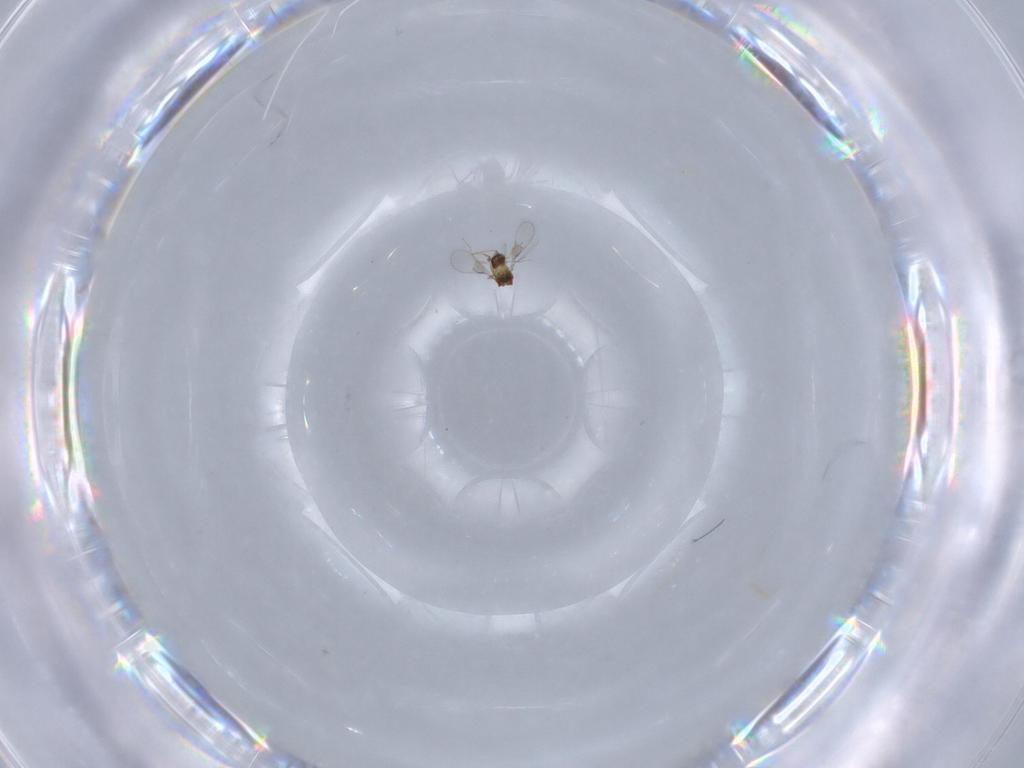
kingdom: Animalia
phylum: Arthropoda
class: Insecta
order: Hymenoptera
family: Trichogrammatidae
